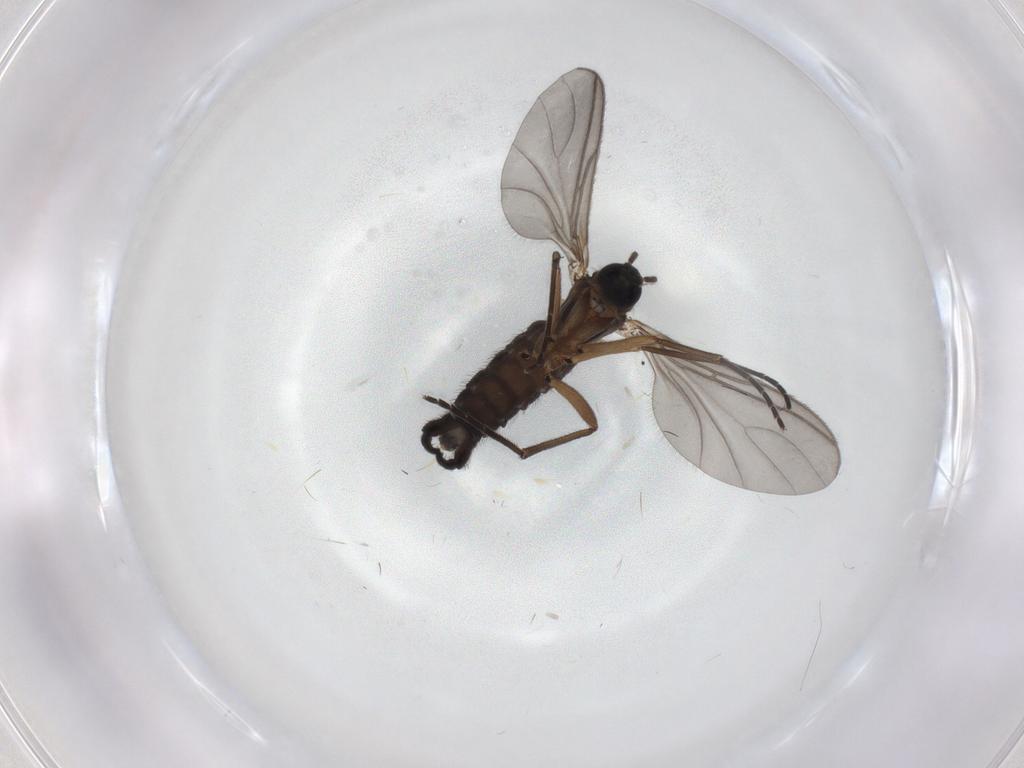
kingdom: Animalia
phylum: Arthropoda
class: Insecta
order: Diptera
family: Sciaridae
